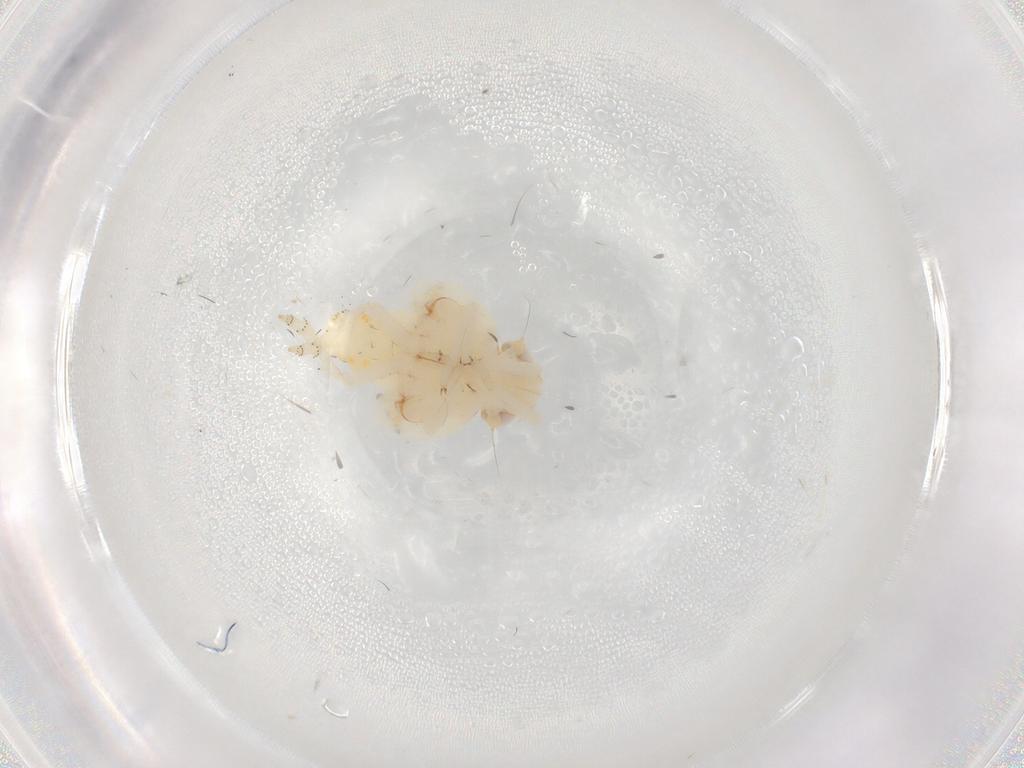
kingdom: Animalia
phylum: Arthropoda
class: Insecta
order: Hemiptera
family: Nogodinidae
